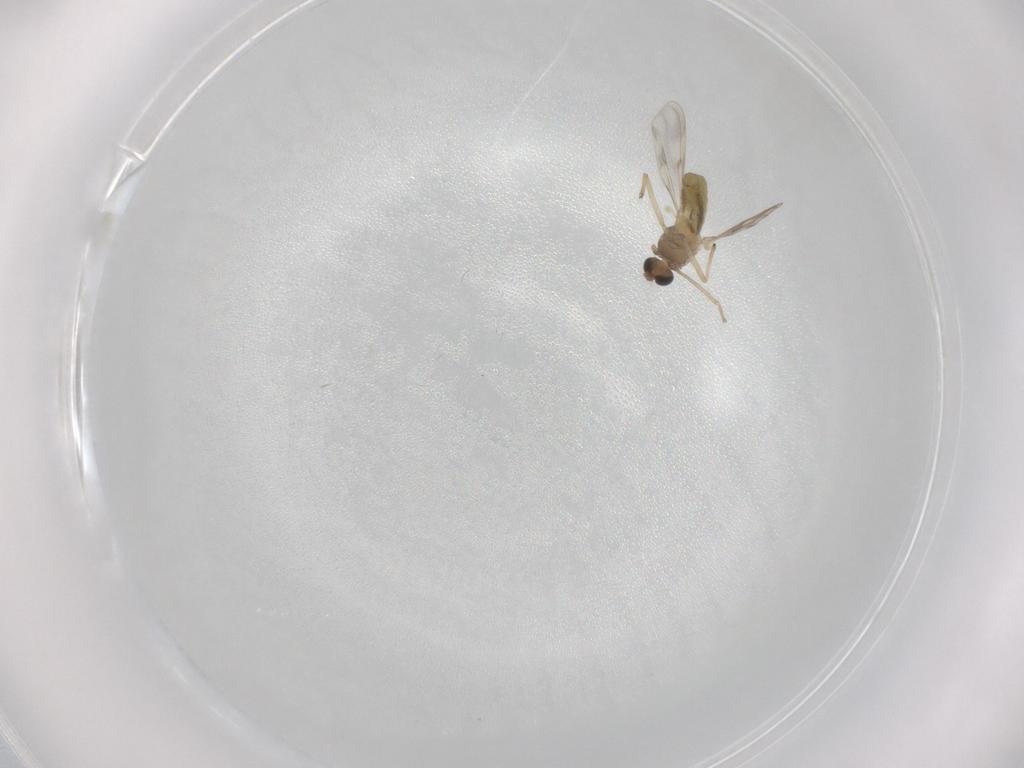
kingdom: Animalia
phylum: Arthropoda
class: Insecta
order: Diptera
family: Chironomidae
